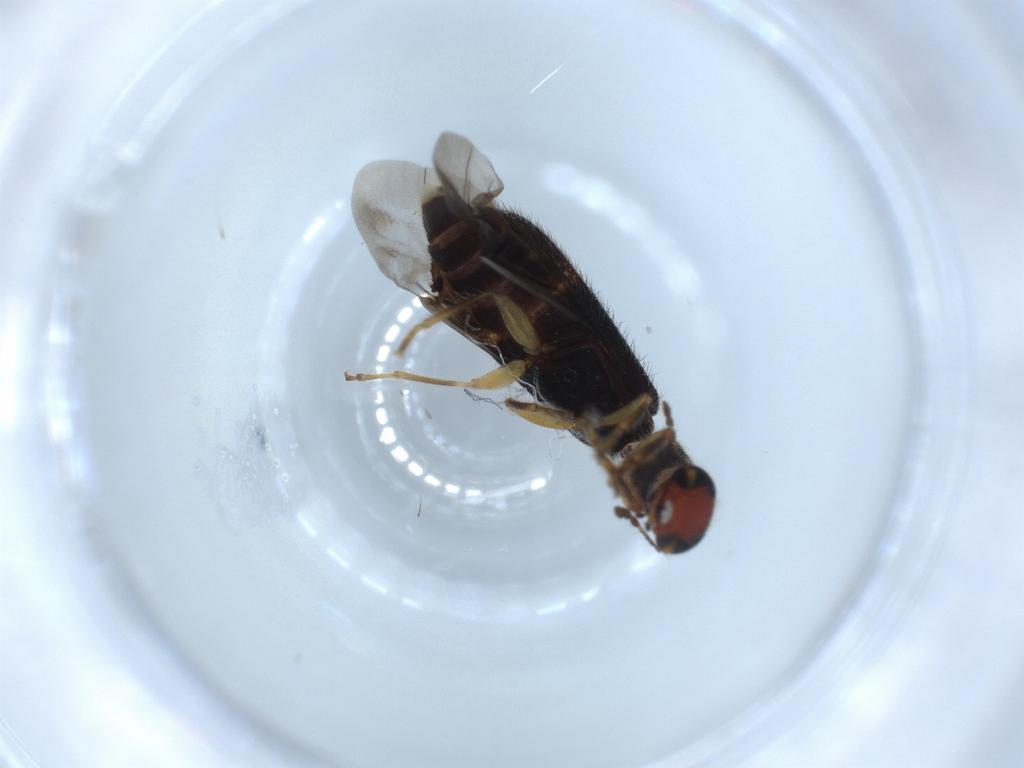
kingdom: Animalia
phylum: Arthropoda
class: Insecta
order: Coleoptera
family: Cleridae
